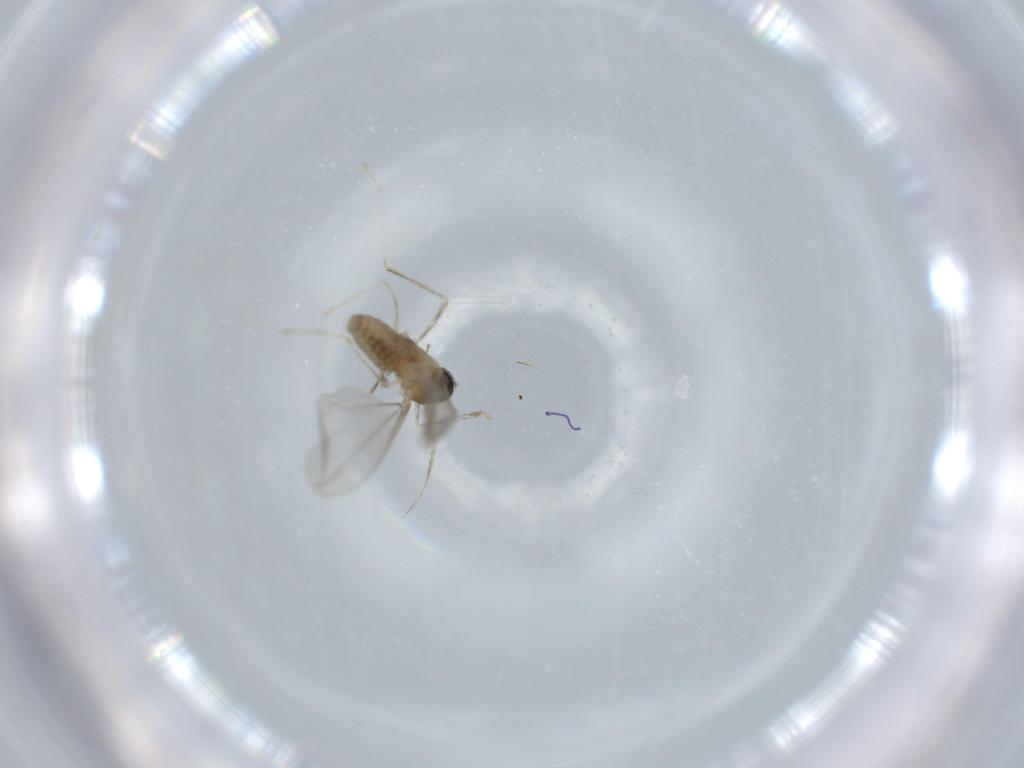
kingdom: Animalia
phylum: Arthropoda
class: Insecta
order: Diptera
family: Cecidomyiidae
